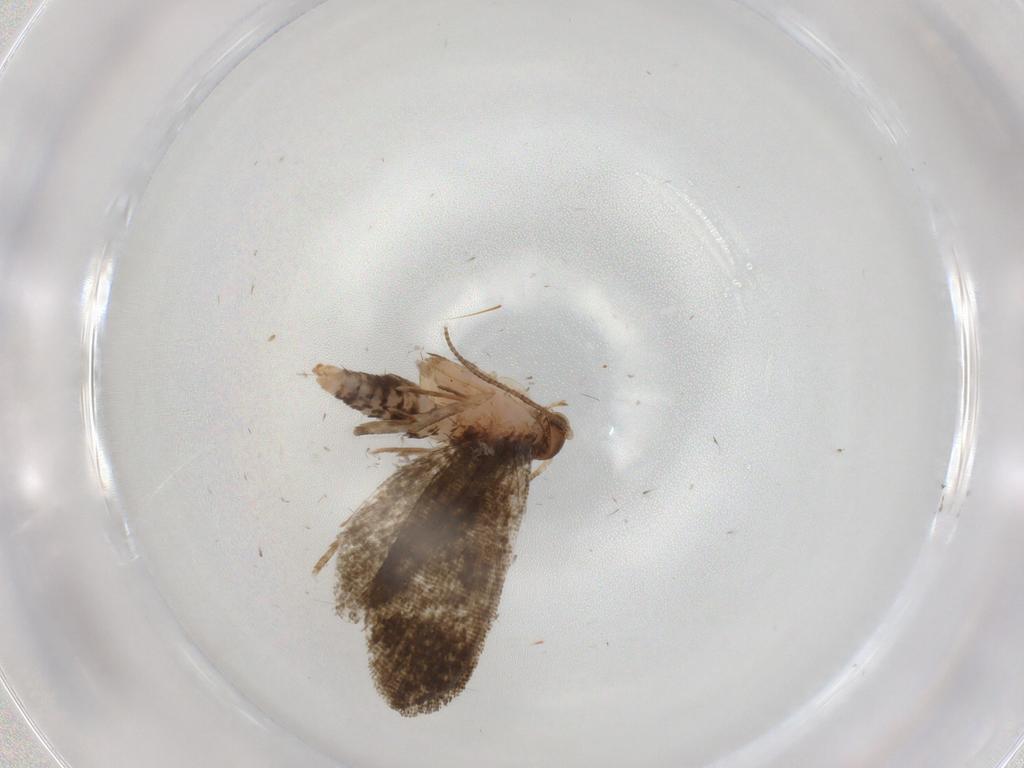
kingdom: Animalia
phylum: Arthropoda
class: Insecta
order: Lepidoptera
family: Tineidae
